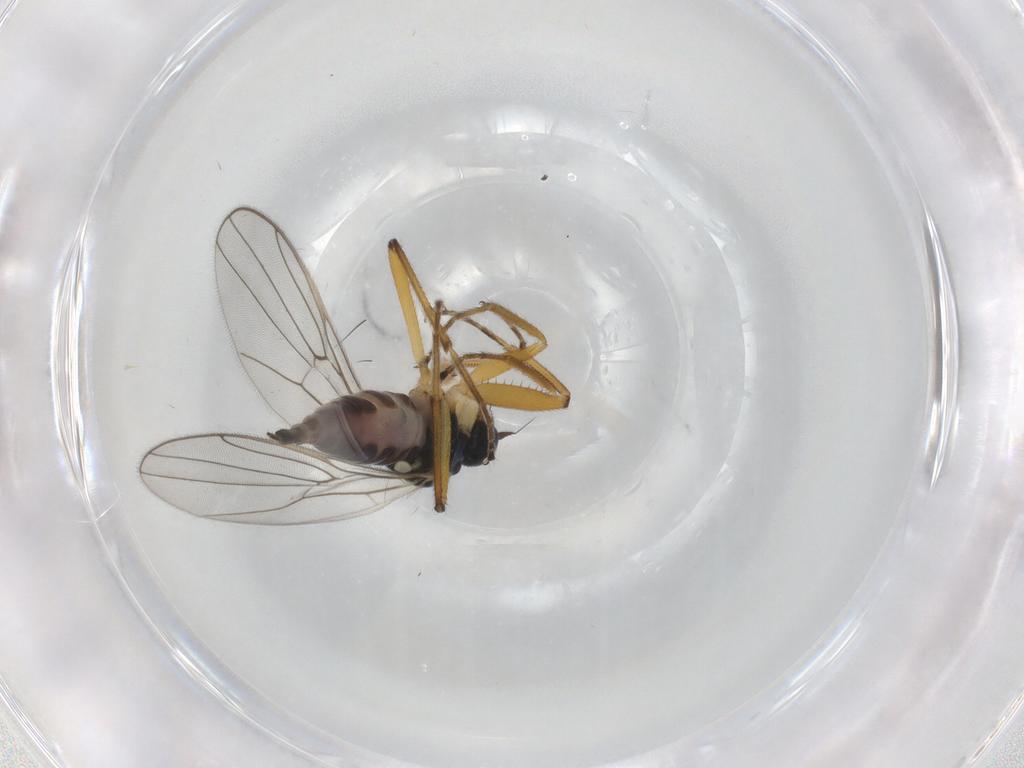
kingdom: Animalia
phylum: Arthropoda
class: Insecta
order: Diptera
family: Ceratopogonidae
